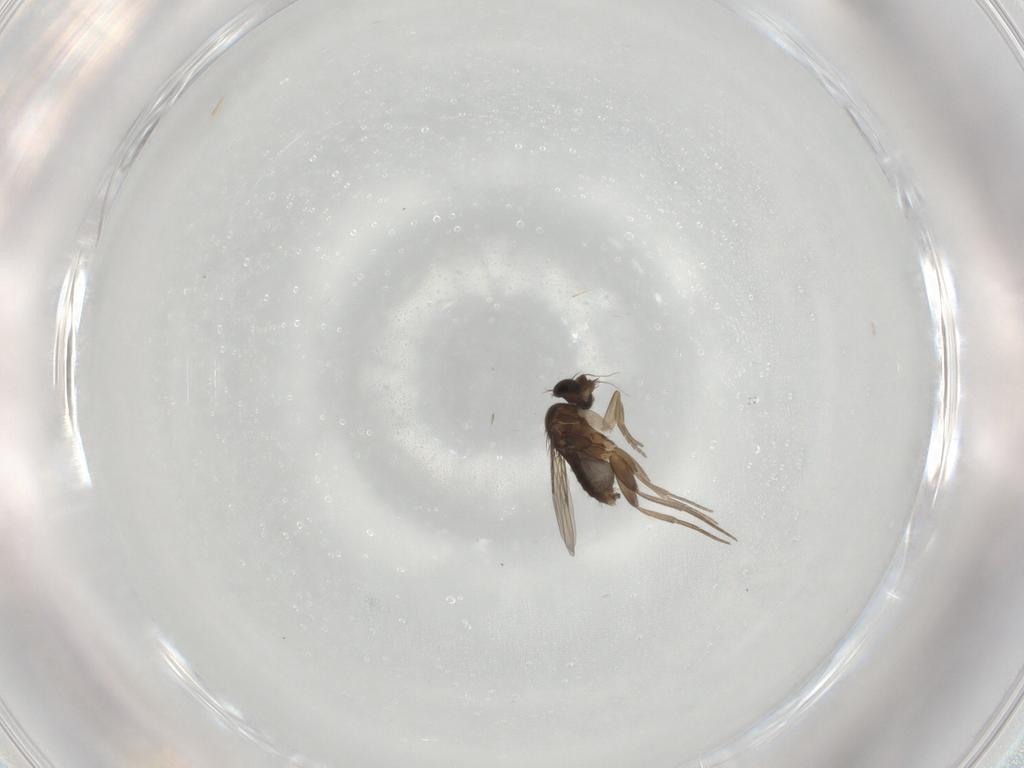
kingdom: Animalia
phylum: Arthropoda
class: Insecta
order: Diptera
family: Phoridae
